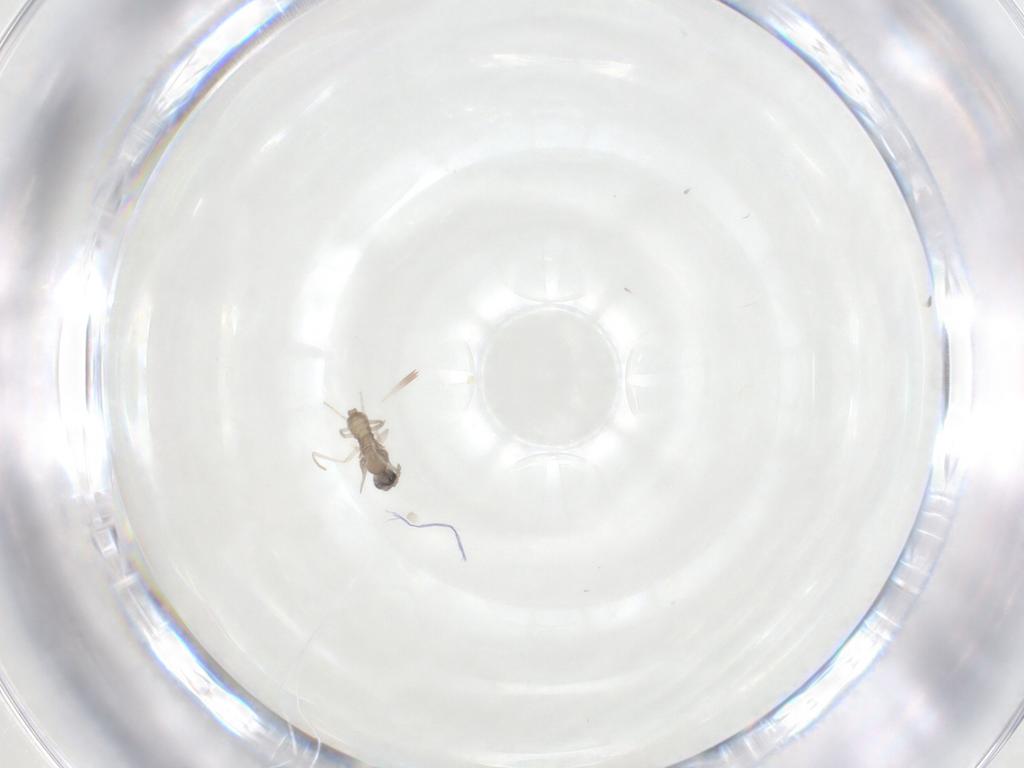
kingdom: Animalia
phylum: Arthropoda
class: Insecta
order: Diptera
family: Cecidomyiidae
